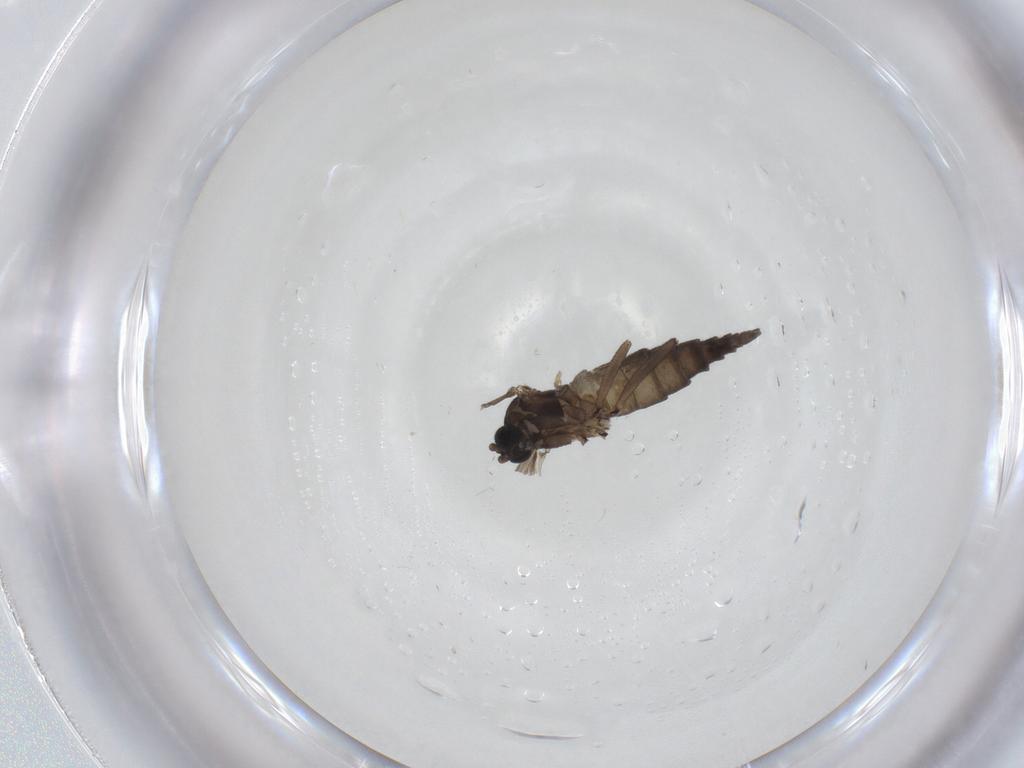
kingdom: Animalia
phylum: Arthropoda
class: Insecta
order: Diptera
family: Sciaridae
